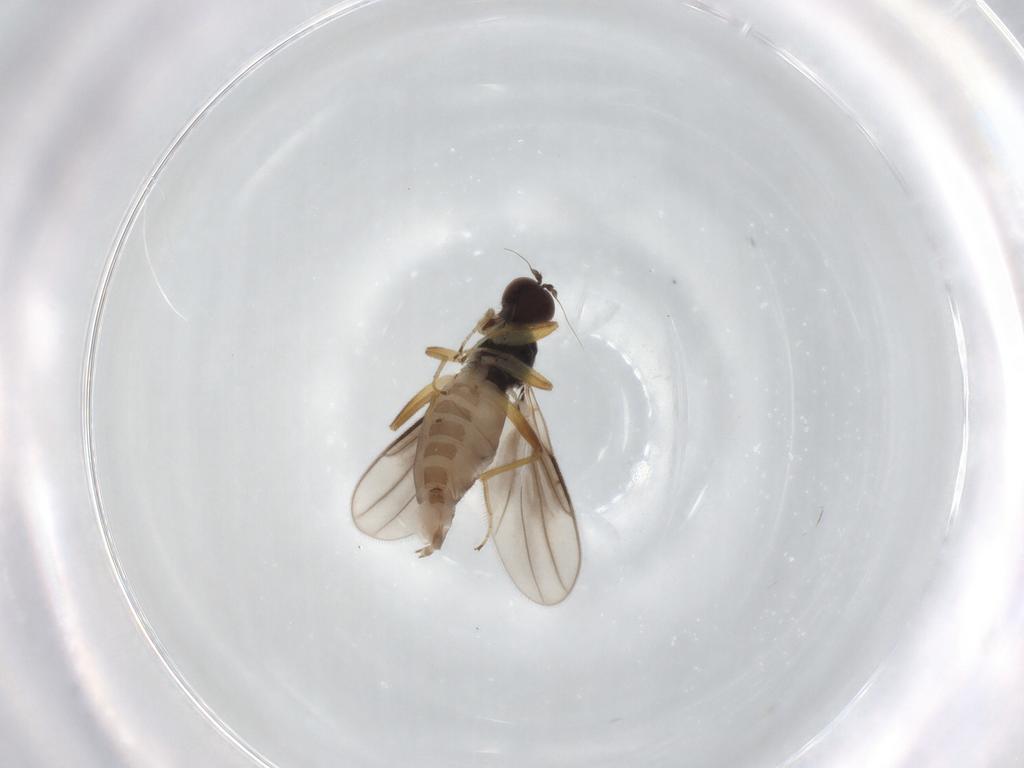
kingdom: Animalia
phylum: Arthropoda
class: Insecta
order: Diptera
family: Hybotidae
